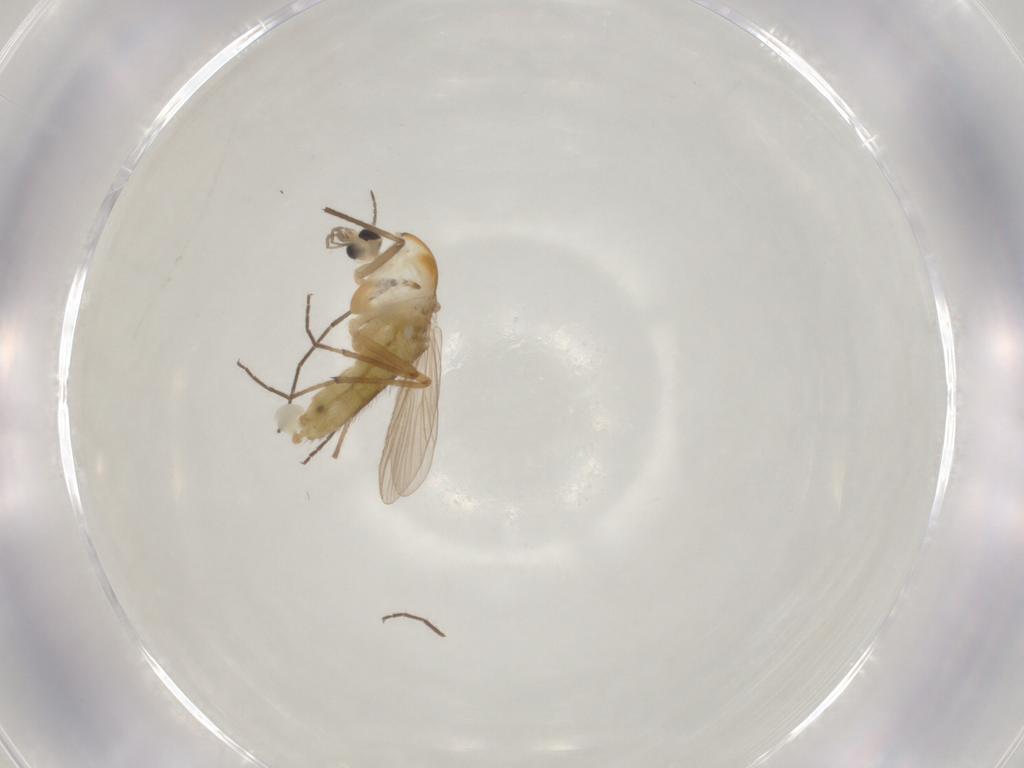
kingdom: Animalia
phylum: Arthropoda
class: Insecta
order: Diptera
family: Chironomidae
